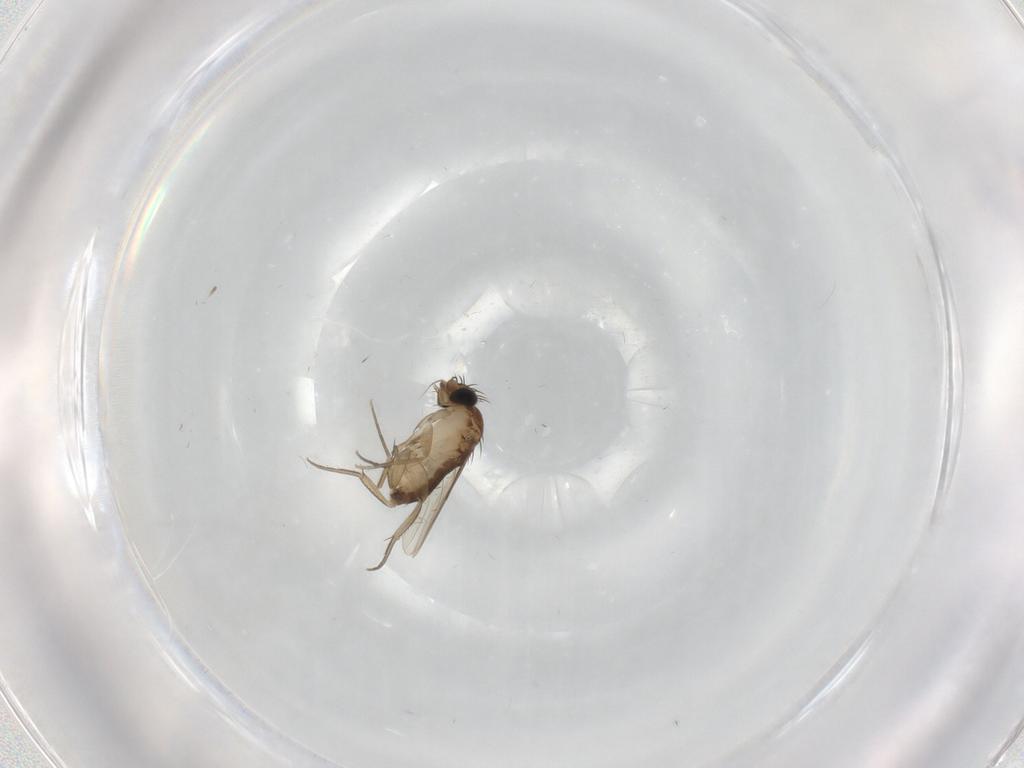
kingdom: Animalia
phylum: Arthropoda
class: Insecta
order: Diptera
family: Phoridae
